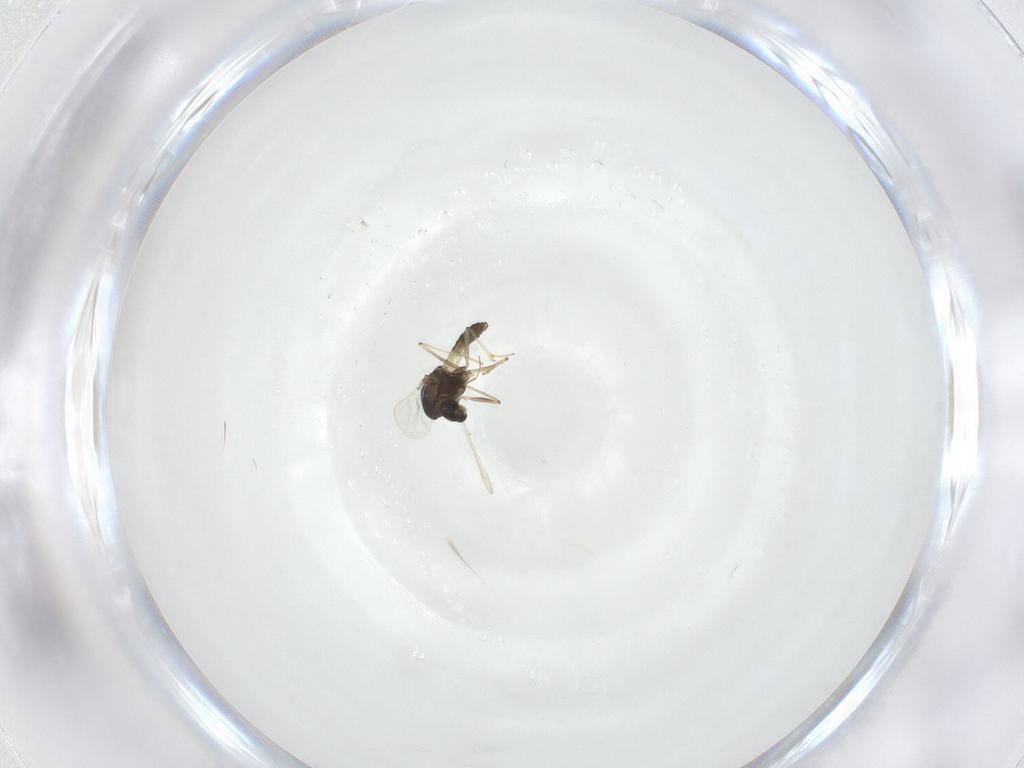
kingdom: Animalia
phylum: Arthropoda
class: Insecta
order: Diptera
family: Chironomidae
